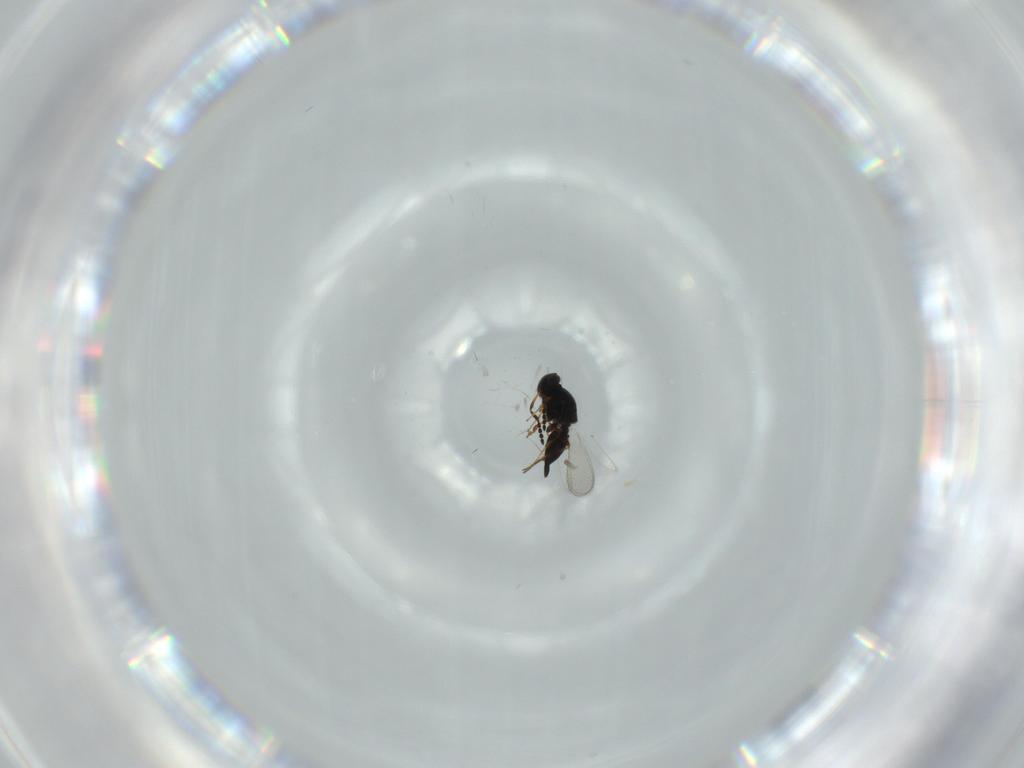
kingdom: Animalia
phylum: Arthropoda
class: Insecta
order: Hymenoptera
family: Platygastridae
